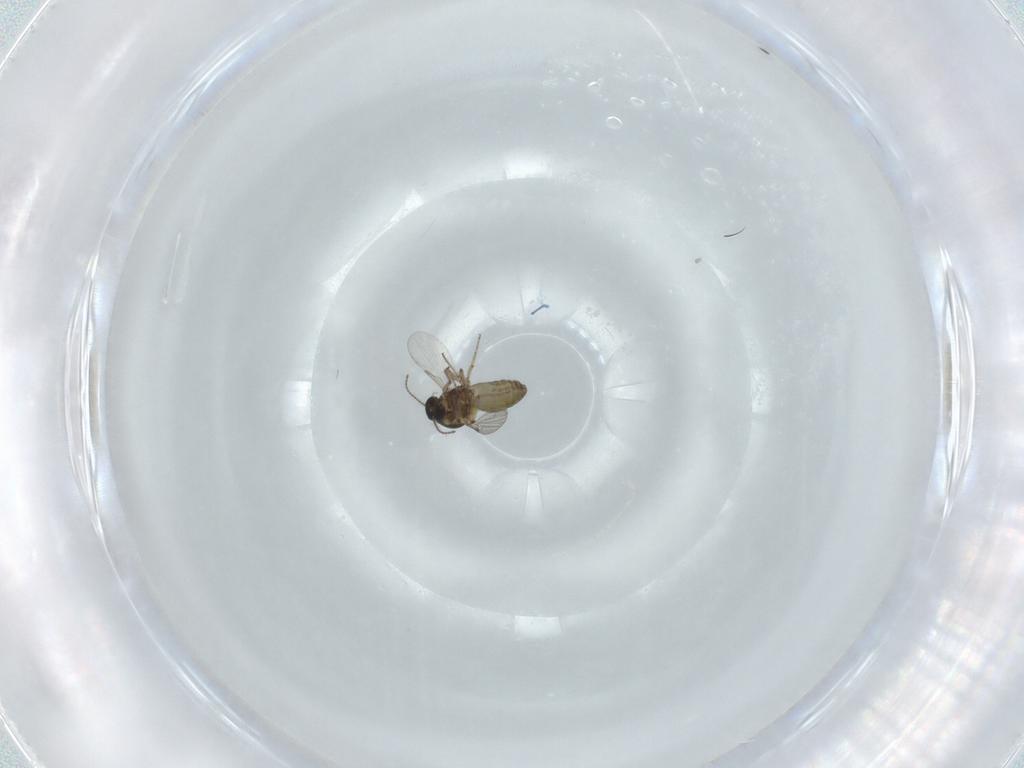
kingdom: Animalia
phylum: Arthropoda
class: Insecta
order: Diptera
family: Ceratopogonidae
